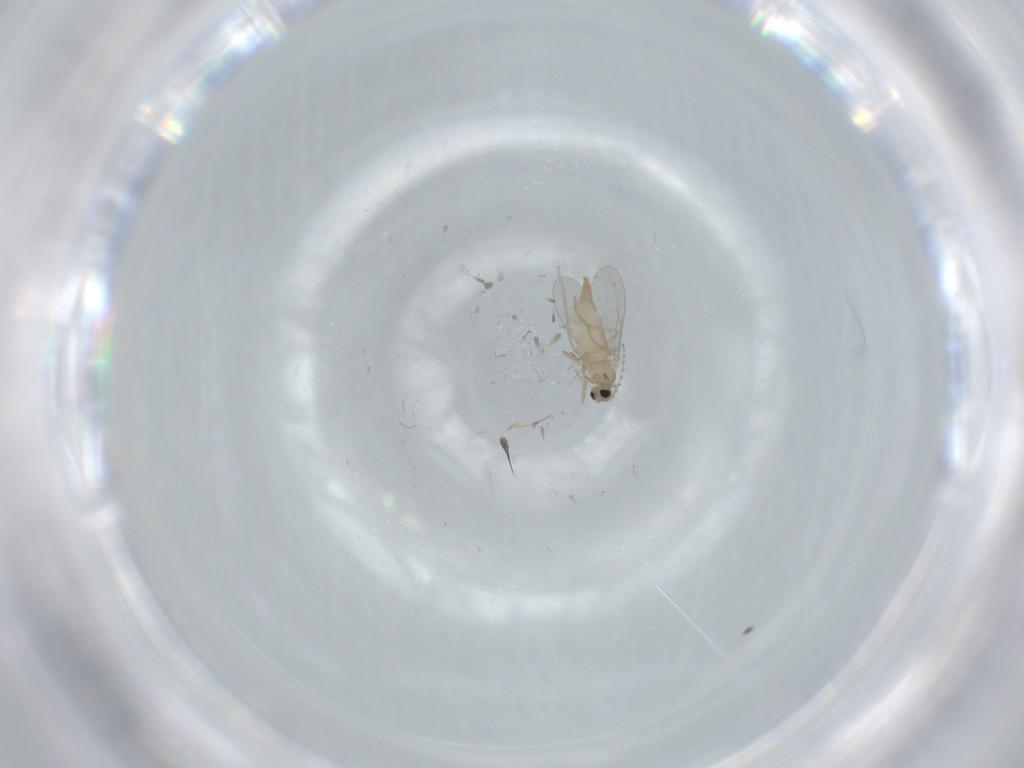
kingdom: Animalia
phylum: Arthropoda
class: Insecta
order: Diptera
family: Cecidomyiidae
